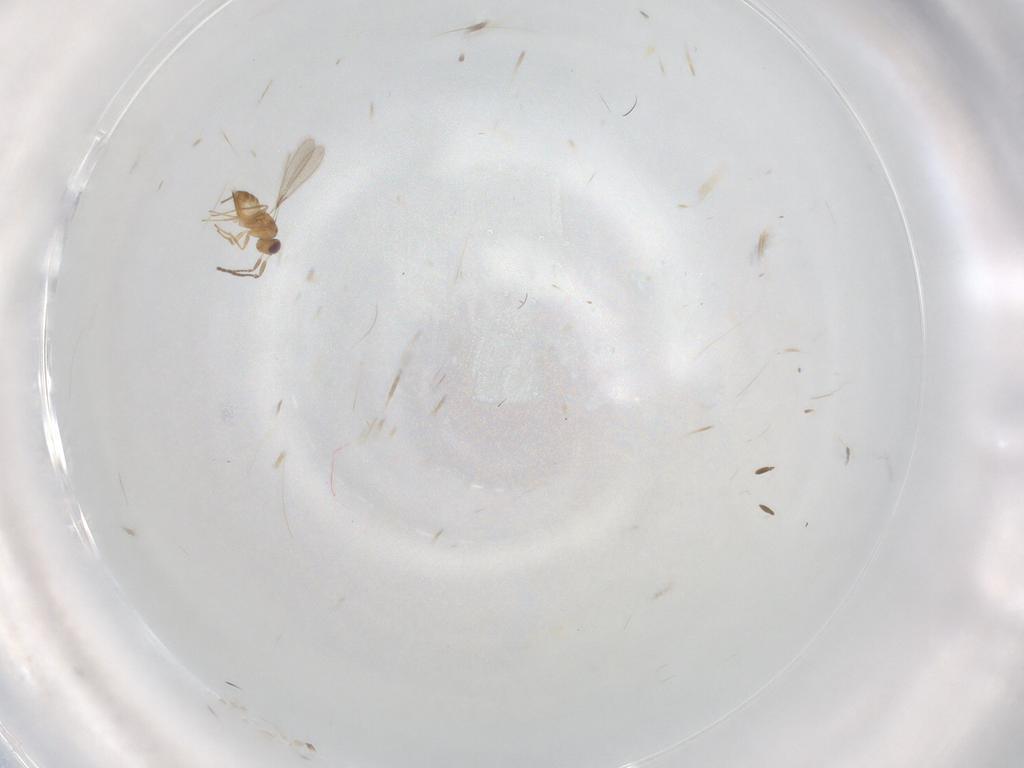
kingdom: Animalia
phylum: Arthropoda
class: Insecta
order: Hymenoptera
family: Mymaridae
